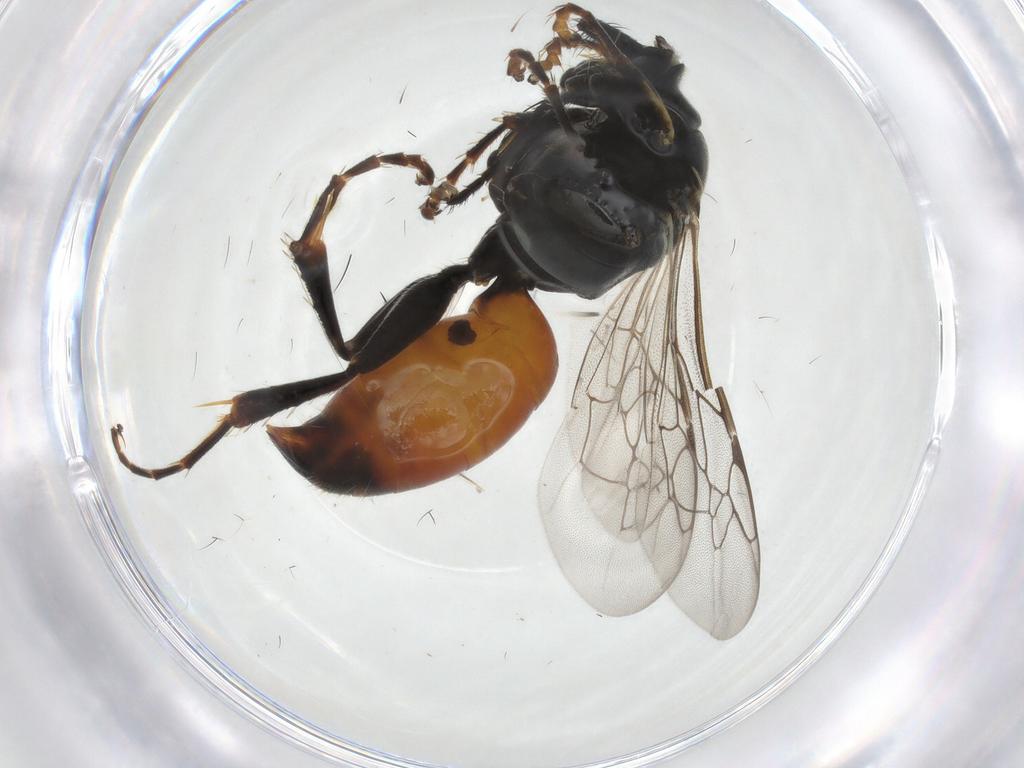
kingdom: Animalia
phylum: Arthropoda
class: Insecta
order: Hymenoptera
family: Crabronidae
